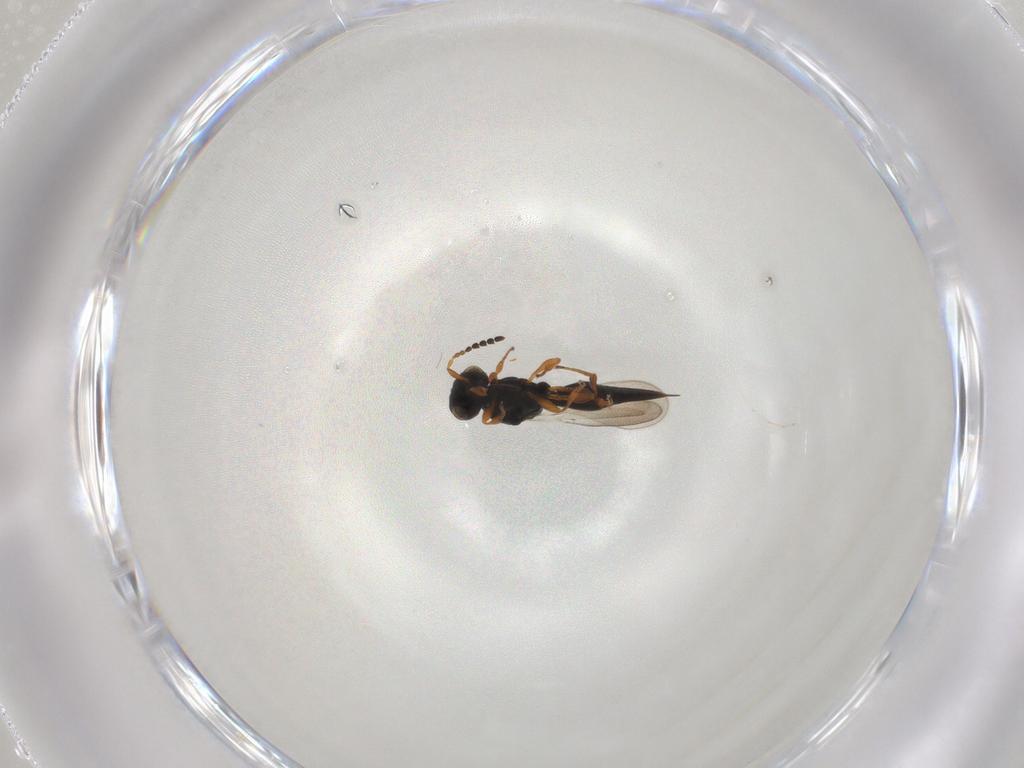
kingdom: Animalia
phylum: Arthropoda
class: Insecta
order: Hymenoptera
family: Platygastridae
